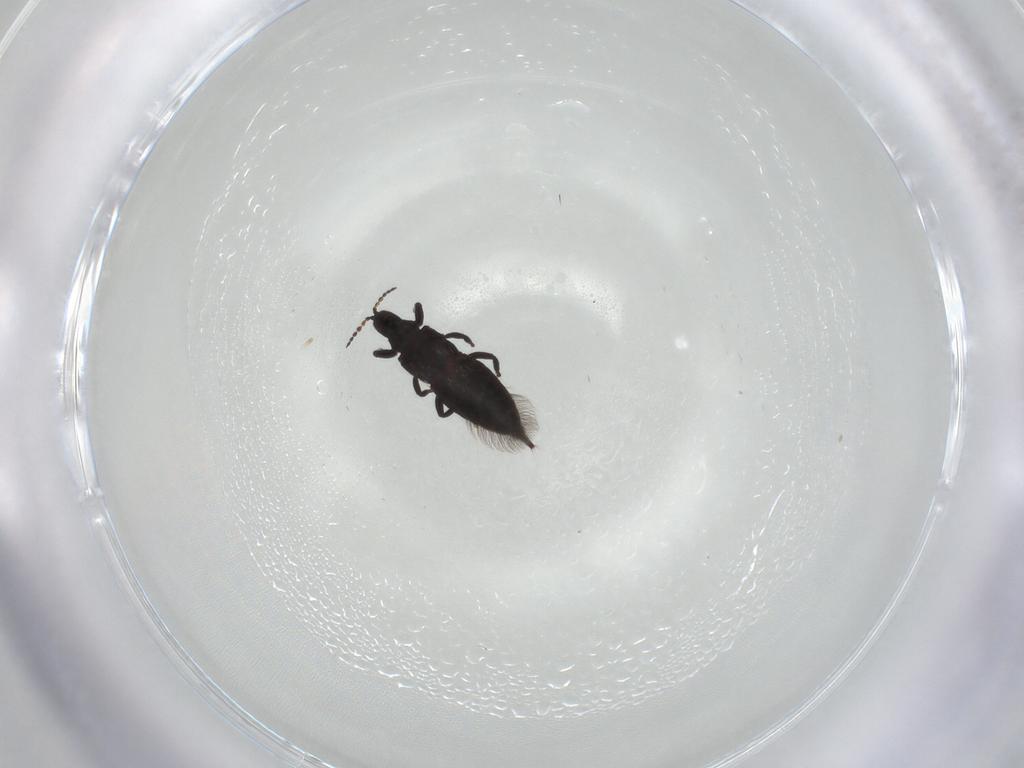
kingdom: Animalia
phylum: Arthropoda
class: Insecta
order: Thysanoptera
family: Phlaeothripidae
